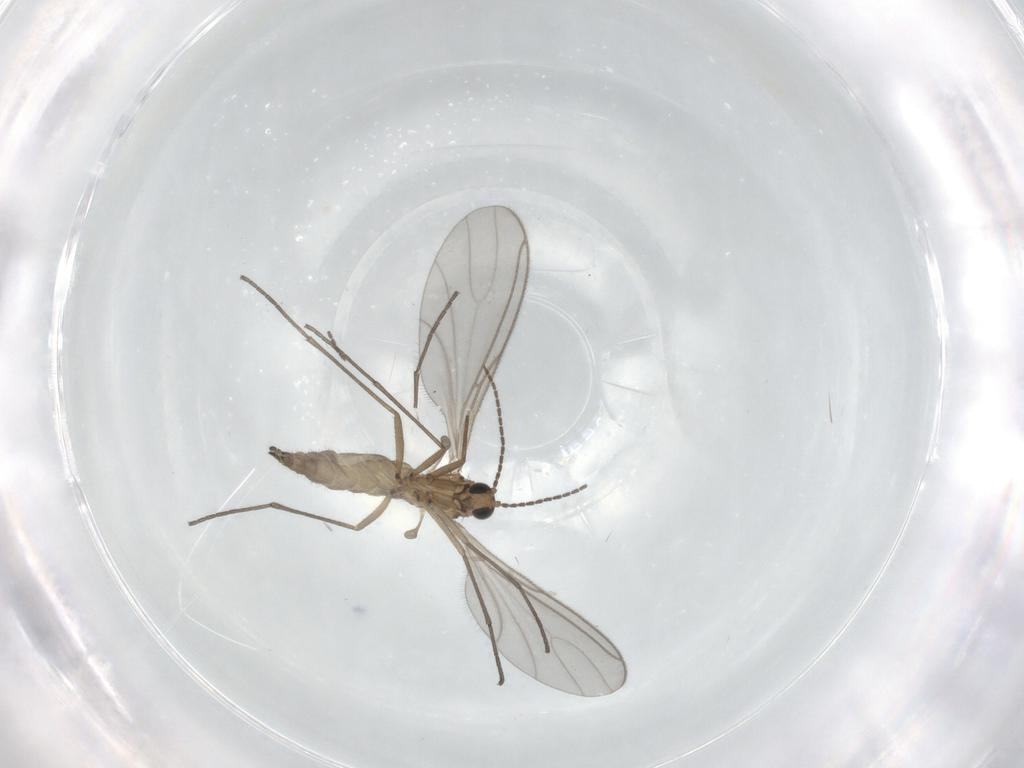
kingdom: Animalia
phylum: Arthropoda
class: Insecta
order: Diptera
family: Sciaridae
